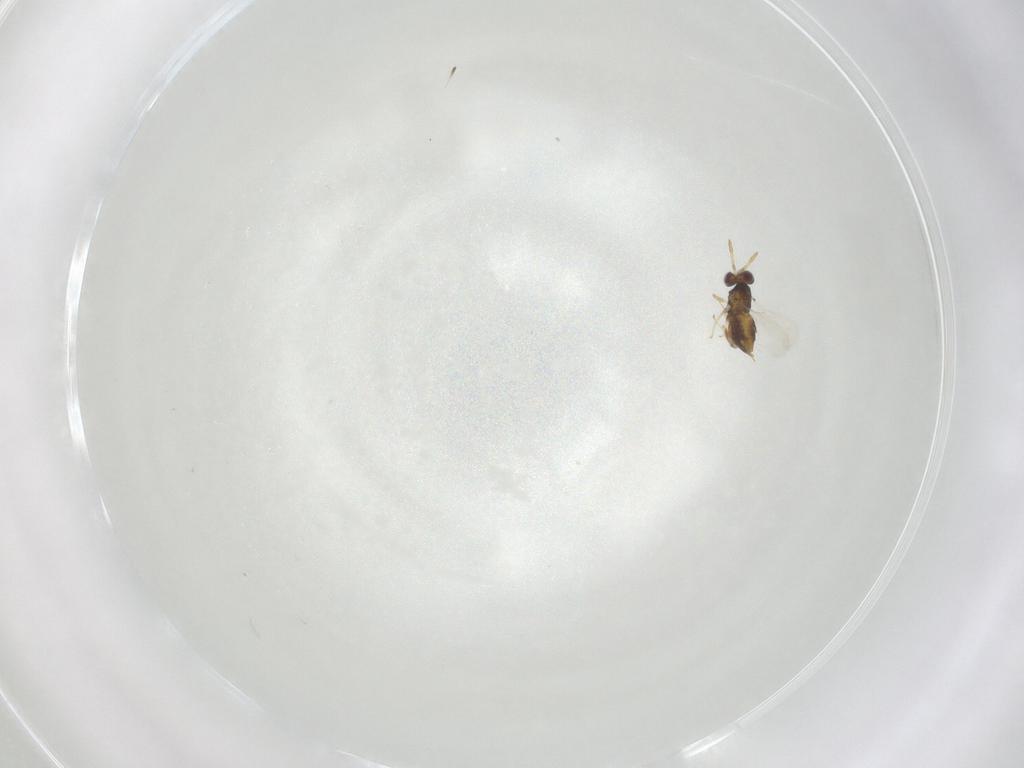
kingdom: Animalia
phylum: Arthropoda
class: Insecta
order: Hymenoptera
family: Aphelinidae
